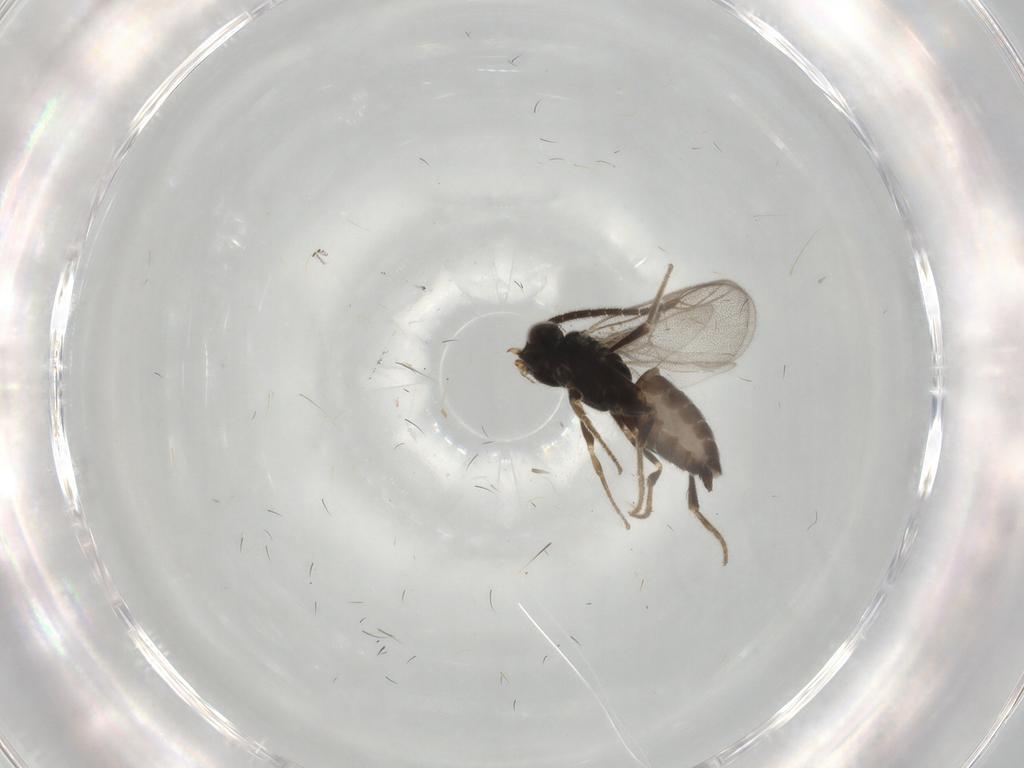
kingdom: Animalia
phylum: Arthropoda
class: Insecta
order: Hymenoptera
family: Dryinidae
